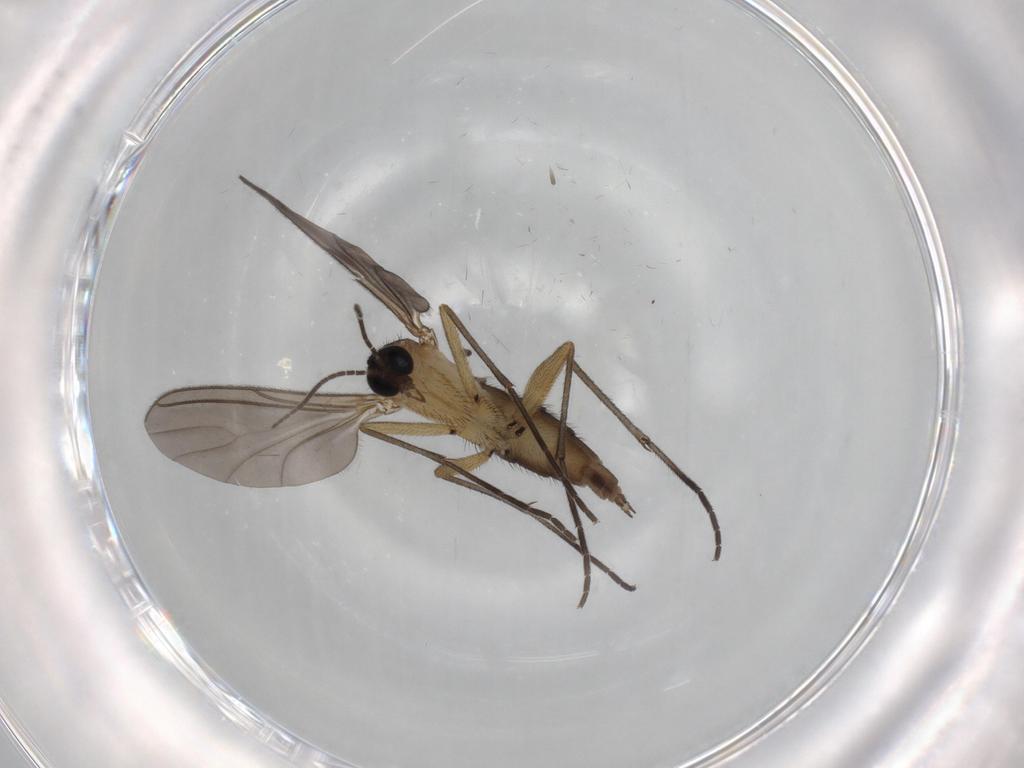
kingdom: Animalia
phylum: Arthropoda
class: Insecta
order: Diptera
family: Sciaridae
